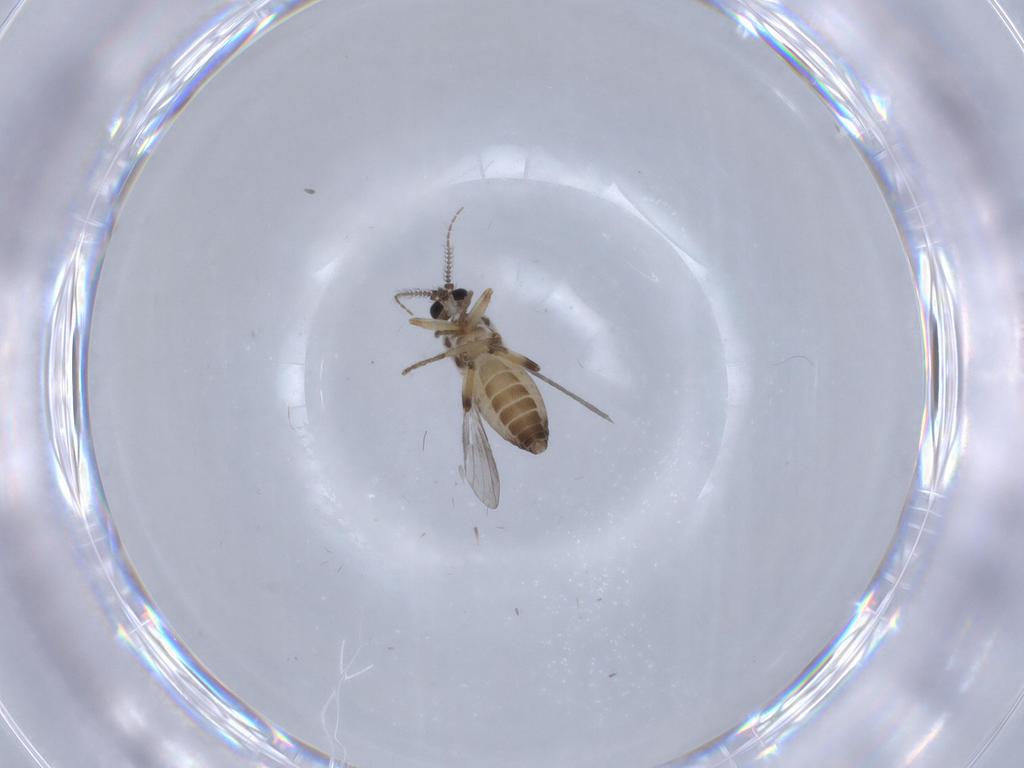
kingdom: Animalia
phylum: Arthropoda
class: Insecta
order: Diptera
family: Ceratopogonidae
